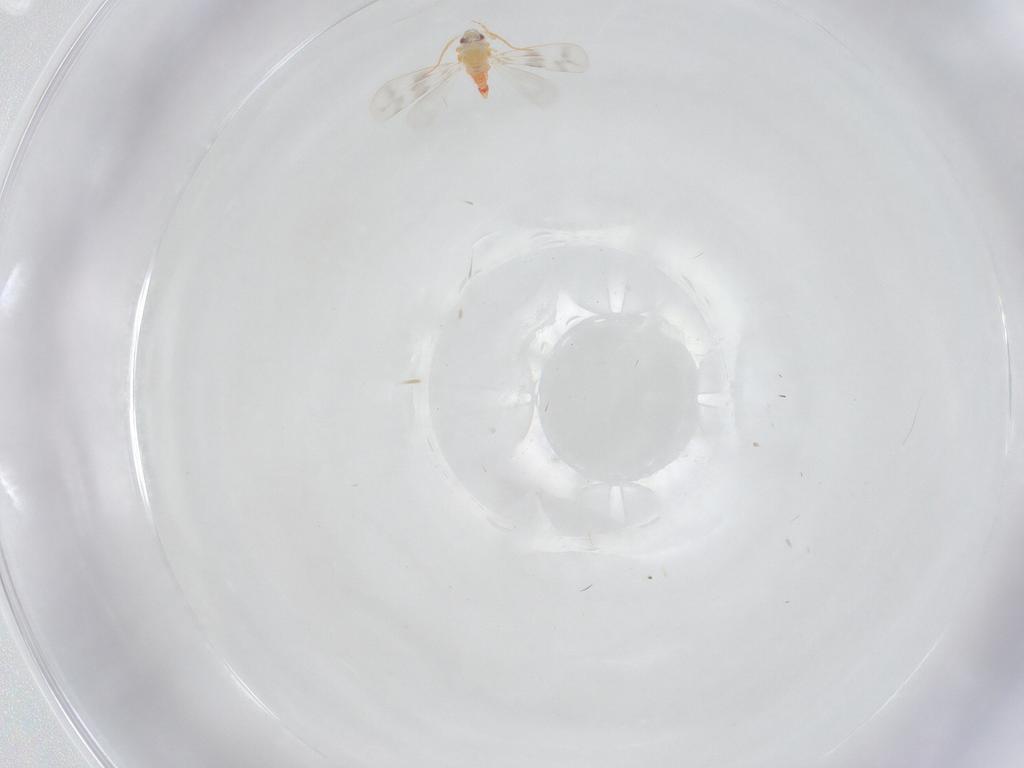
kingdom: Animalia
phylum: Arthropoda
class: Insecta
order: Hemiptera
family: Aleyrodidae
